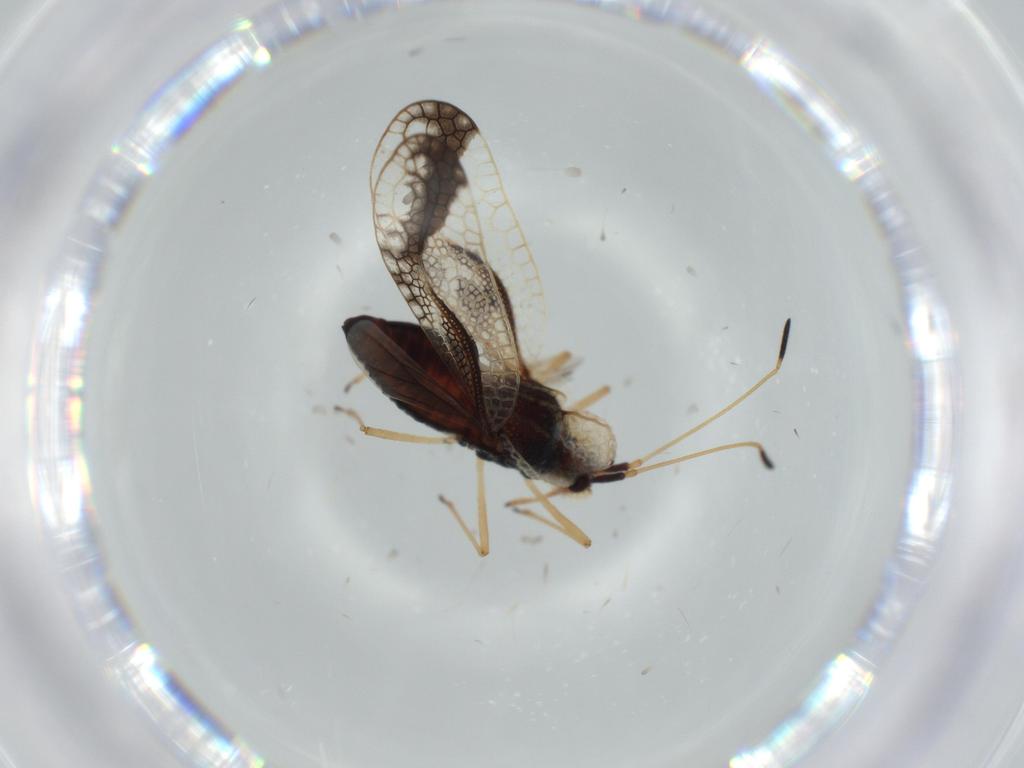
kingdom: Animalia
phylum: Arthropoda
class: Insecta
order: Hemiptera
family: Tingidae
